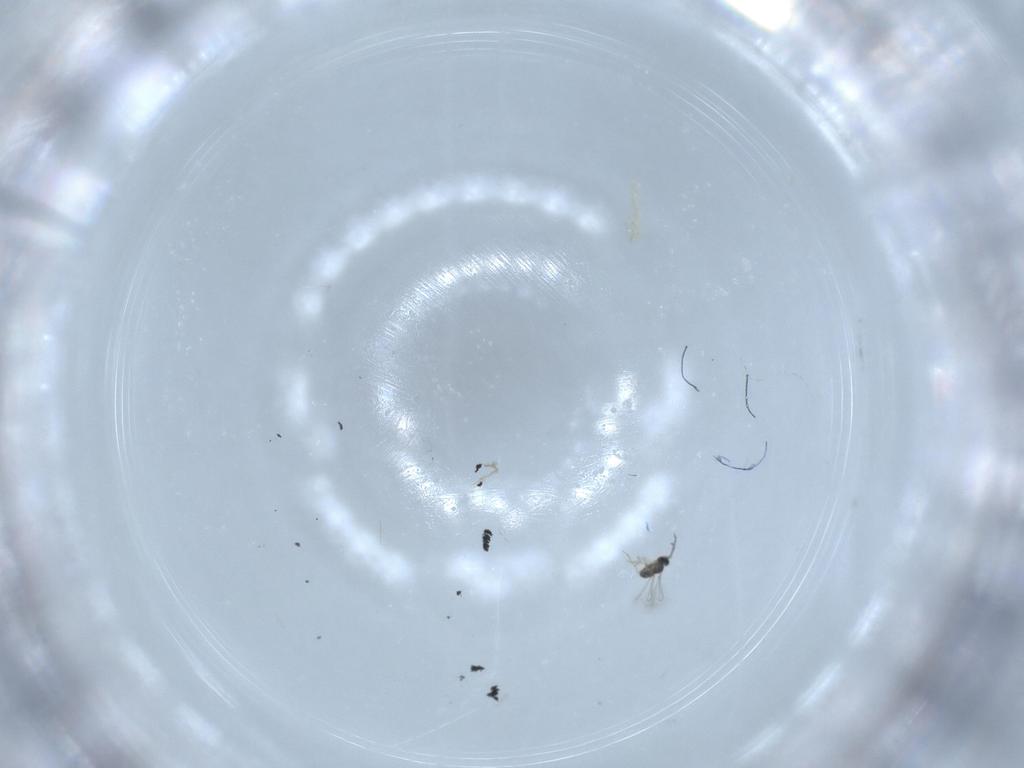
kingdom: Animalia
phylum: Arthropoda
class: Insecta
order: Hymenoptera
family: Mymaridae
